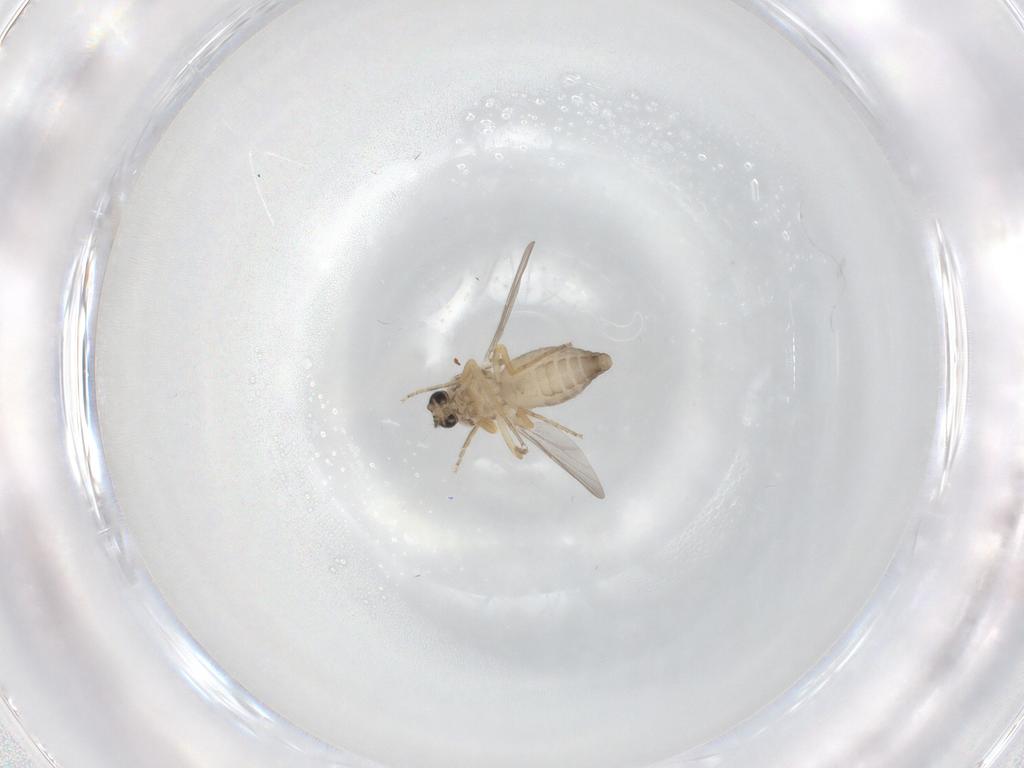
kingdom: Animalia
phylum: Arthropoda
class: Insecta
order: Diptera
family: Ceratopogonidae
